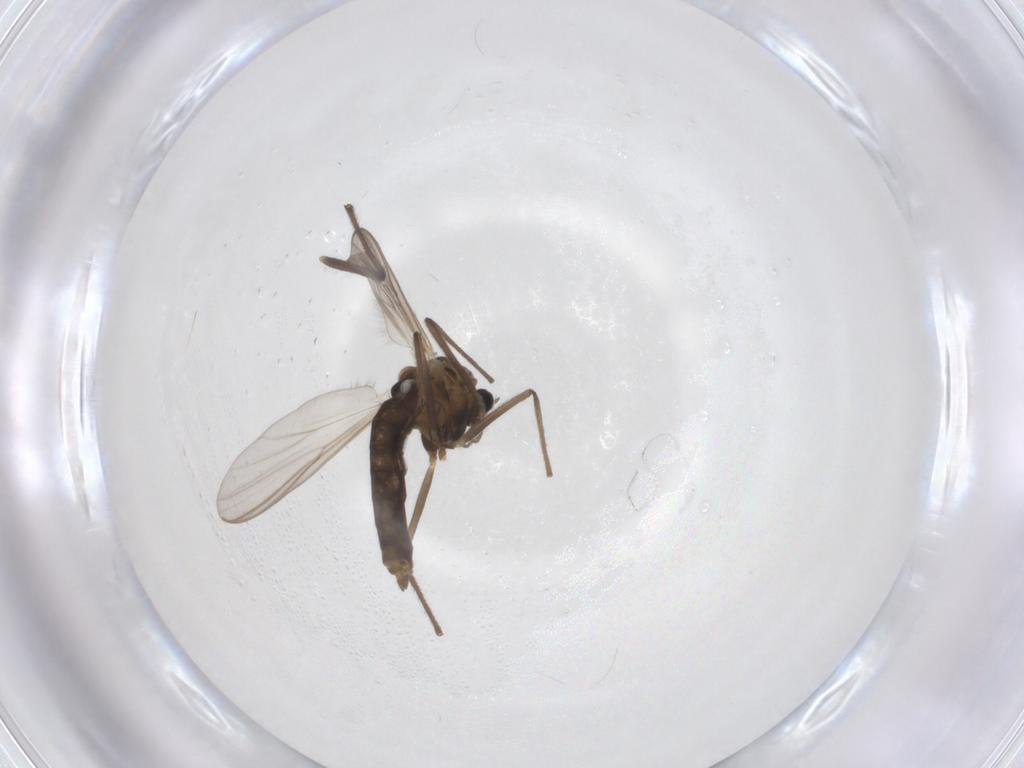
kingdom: Animalia
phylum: Arthropoda
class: Insecta
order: Diptera
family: Chironomidae
